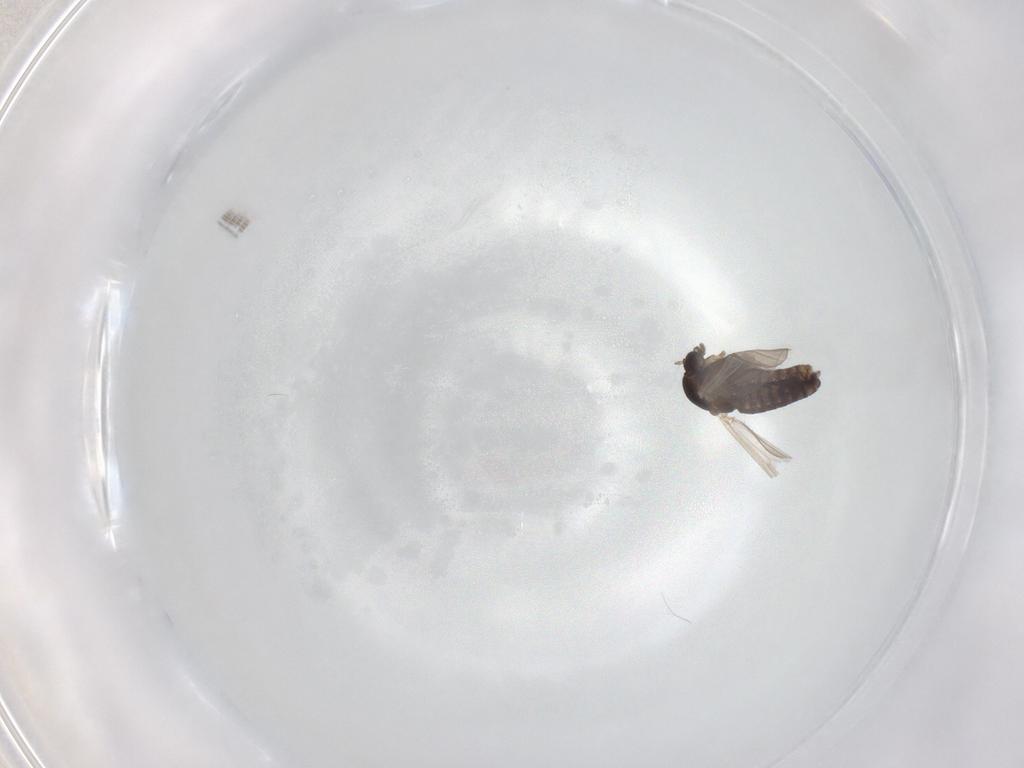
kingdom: Animalia
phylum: Arthropoda
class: Insecta
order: Diptera
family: Chironomidae
